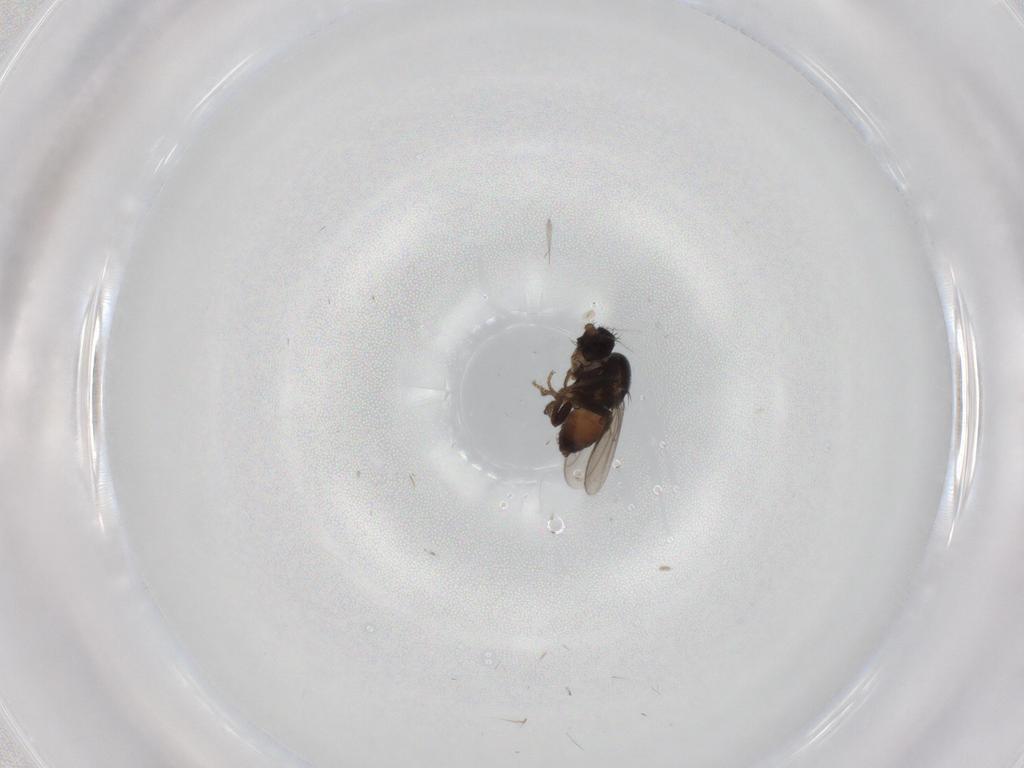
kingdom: Animalia
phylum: Arthropoda
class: Insecta
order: Diptera
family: Sphaeroceridae
